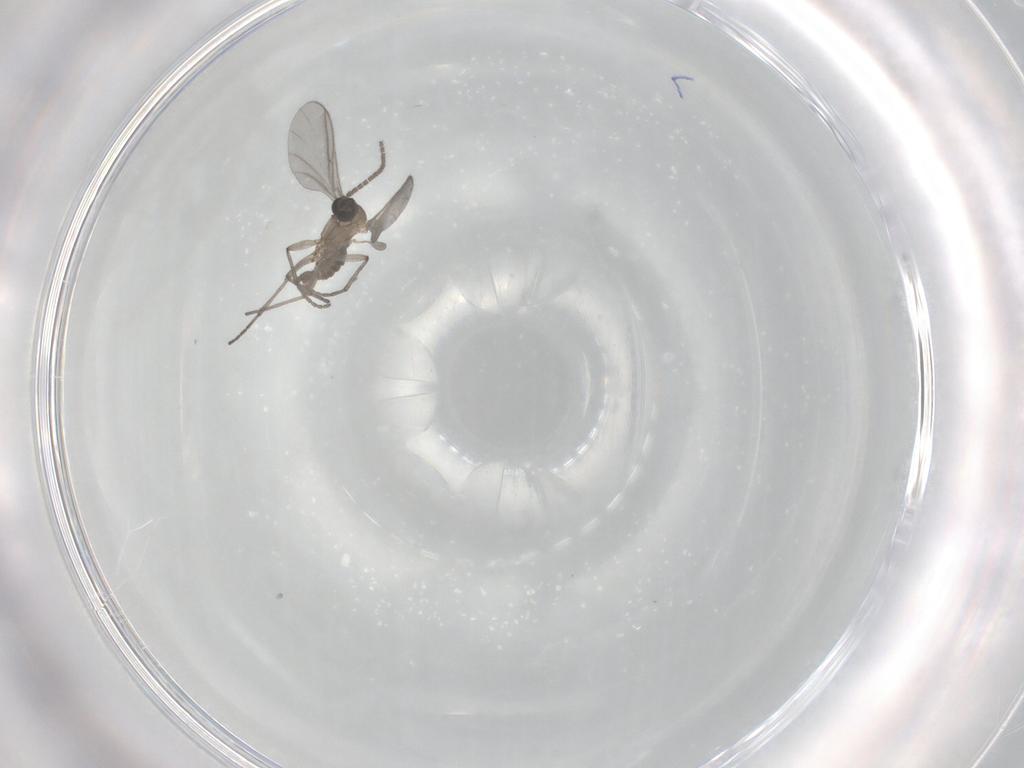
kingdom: Animalia
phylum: Arthropoda
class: Insecta
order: Diptera
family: Sciaridae
